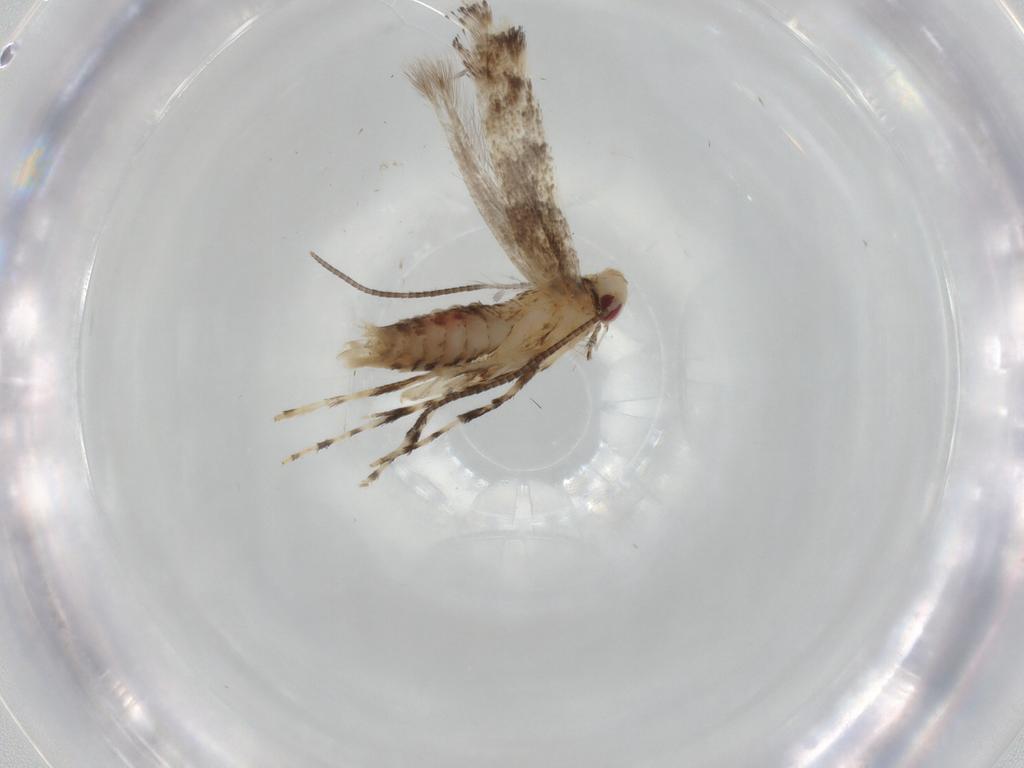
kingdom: Animalia
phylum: Arthropoda
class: Insecta
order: Lepidoptera
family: Gracillariidae
